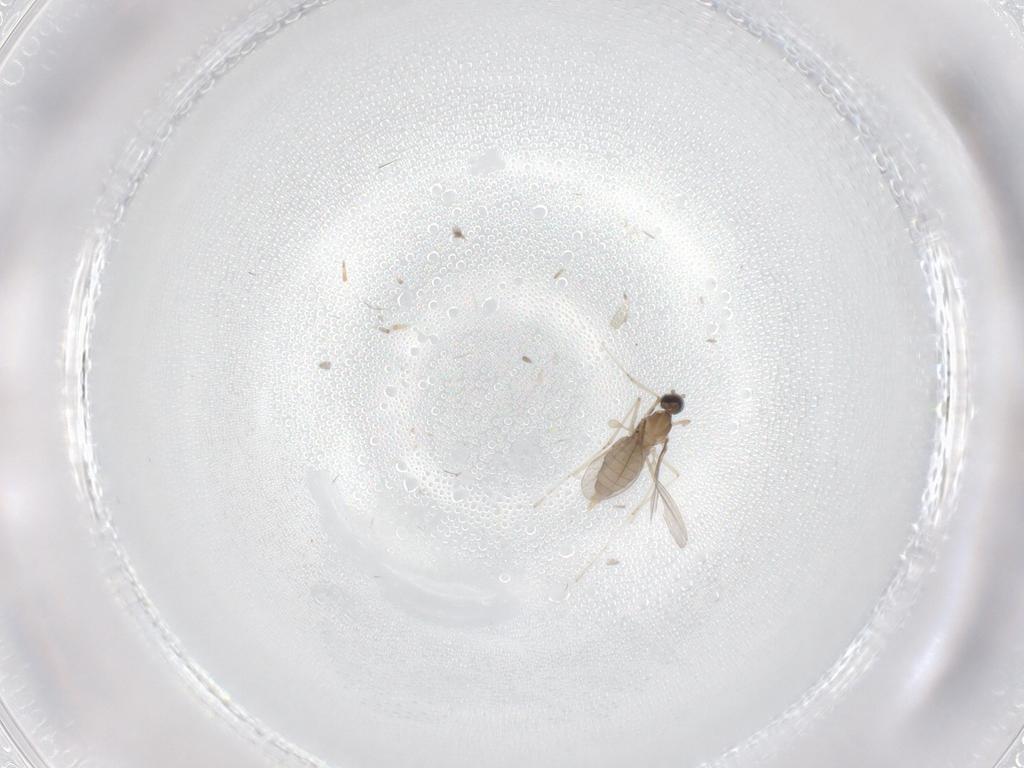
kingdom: Animalia
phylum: Arthropoda
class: Insecta
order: Diptera
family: Cecidomyiidae
